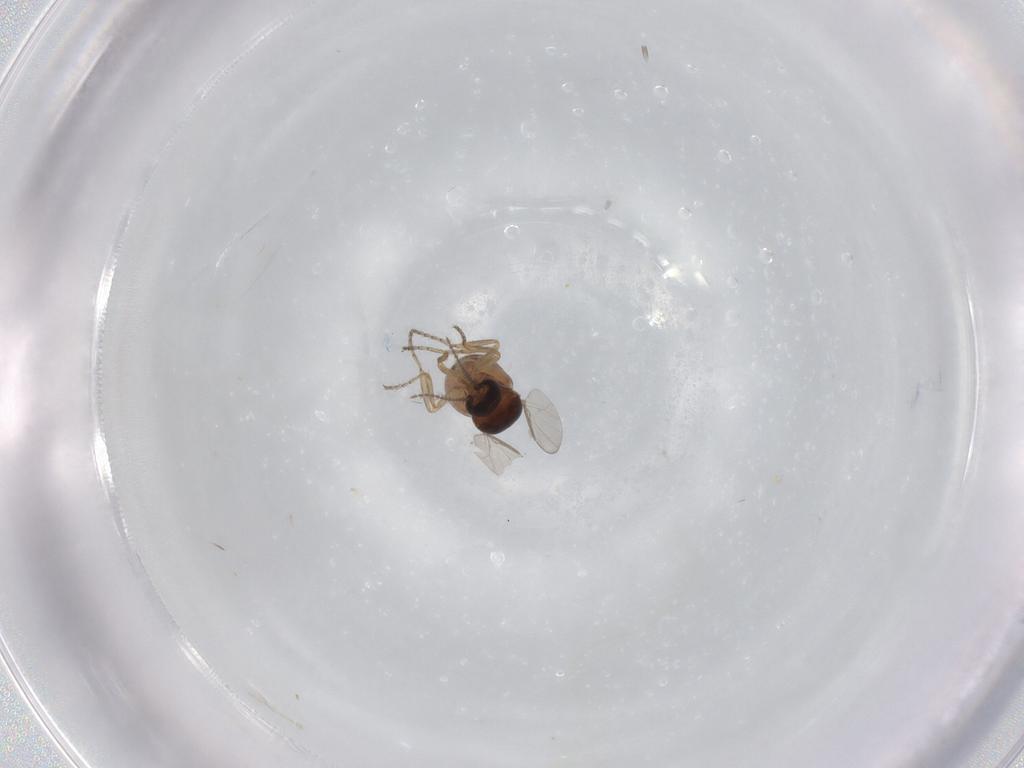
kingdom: Animalia
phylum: Arthropoda
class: Insecta
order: Diptera
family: Ceratopogonidae
